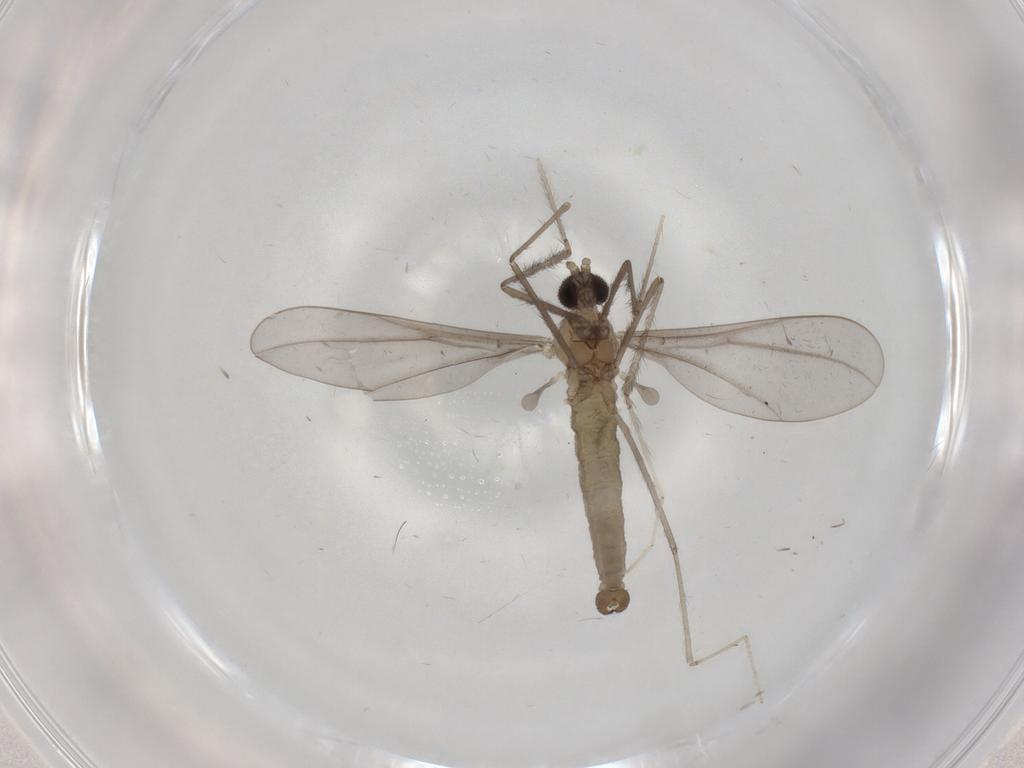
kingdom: Animalia
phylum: Arthropoda
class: Insecta
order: Diptera
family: Cecidomyiidae
